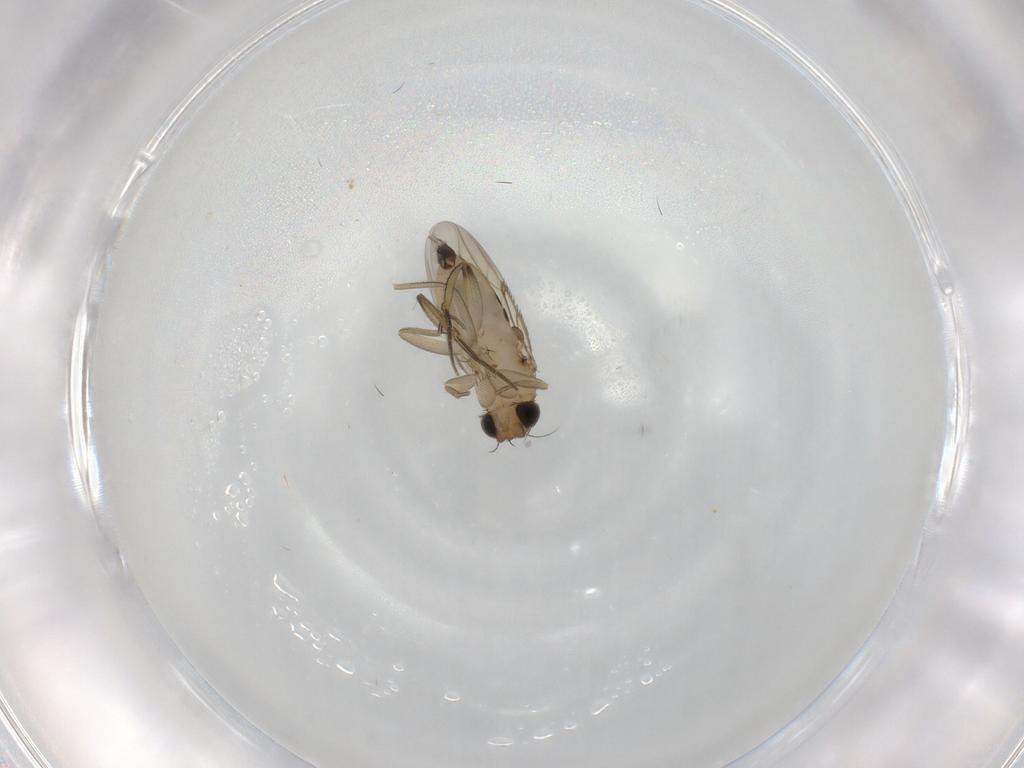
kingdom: Animalia
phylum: Arthropoda
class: Insecta
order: Diptera
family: Phoridae
